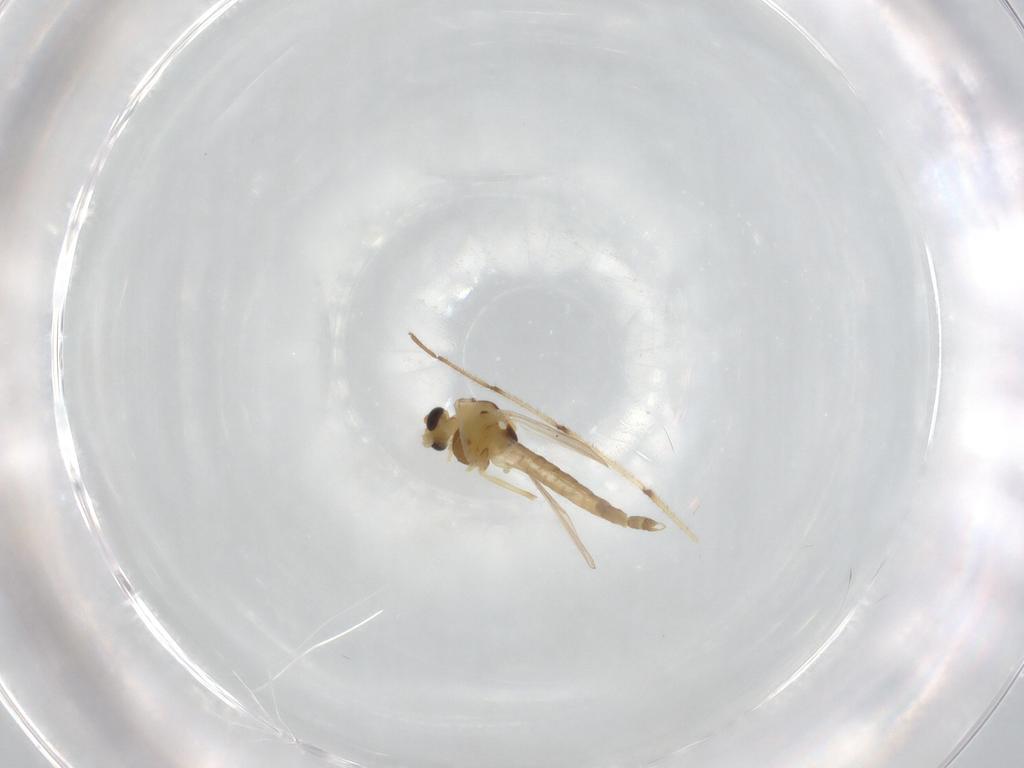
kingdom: Animalia
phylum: Arthropoda
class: Insecta
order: Diptera
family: Chironomidae
